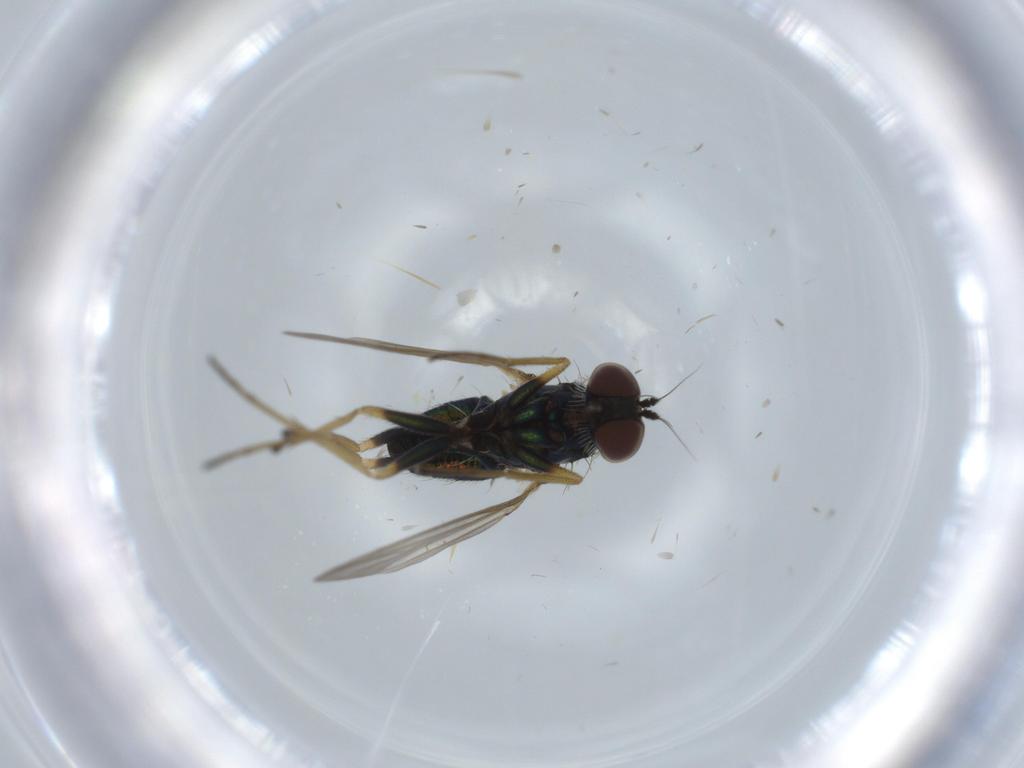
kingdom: Animalia
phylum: Arthropoda
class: Insecta
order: Diptera
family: Dolichopodidae
